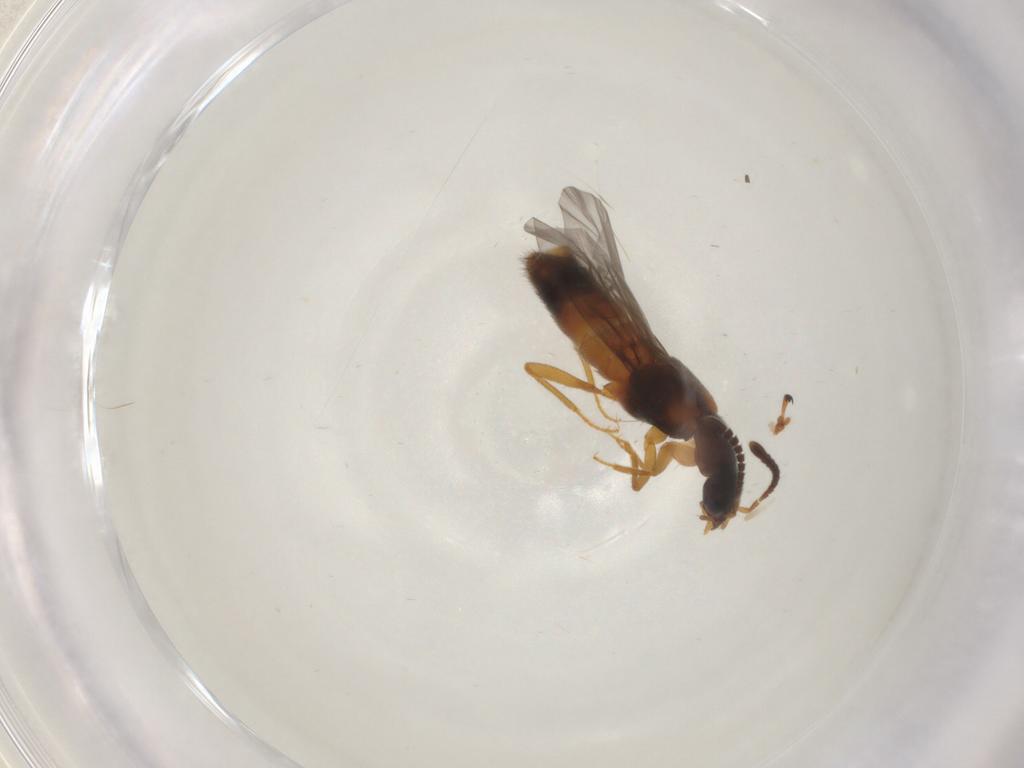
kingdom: Animalia
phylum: Arthropoda
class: Insecta
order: Coleoptera
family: Staphylinidae
